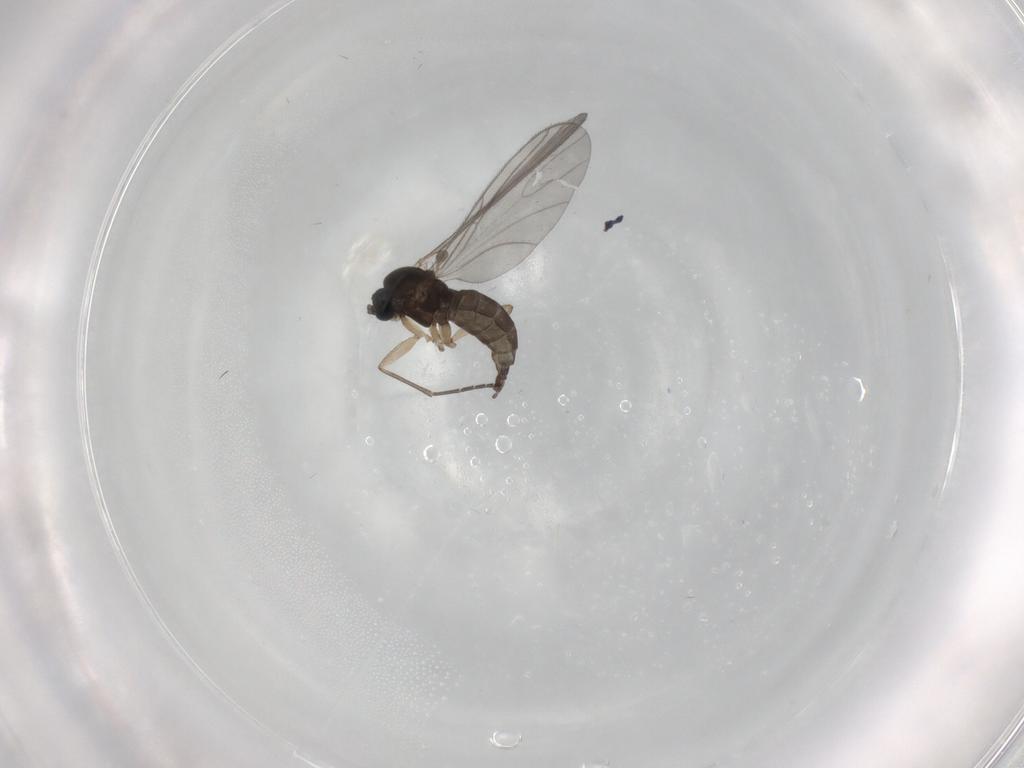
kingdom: Animalia
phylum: Arthropoda
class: Insecta
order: Diptera
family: Sciaridae
